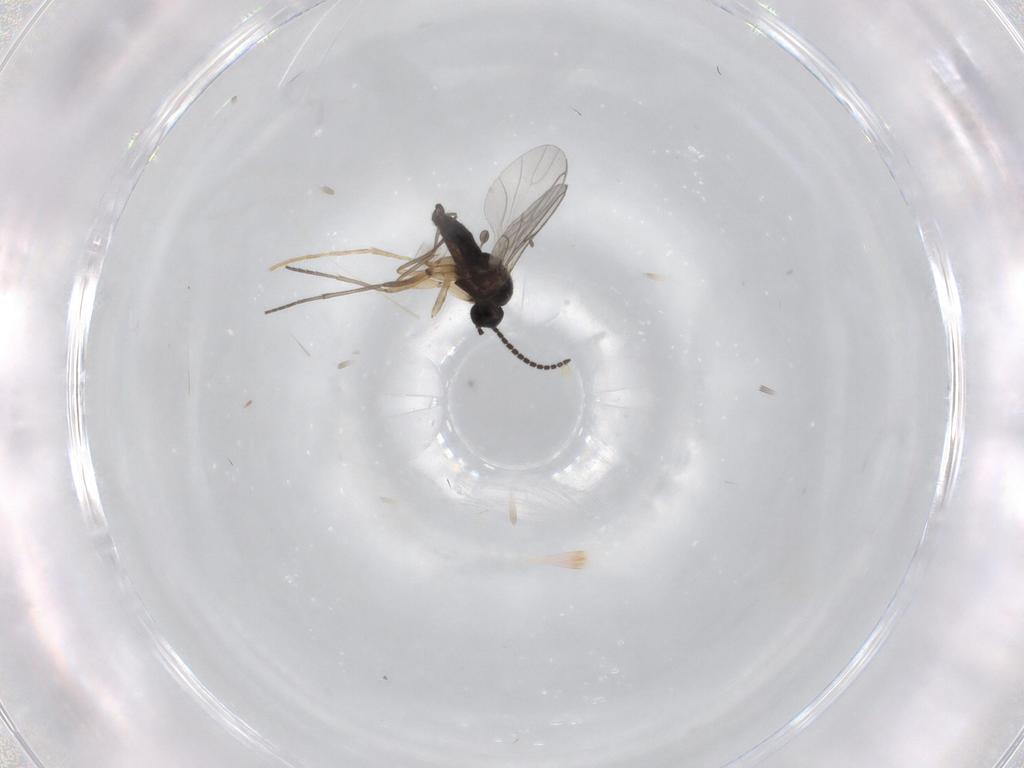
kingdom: Animalia
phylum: Arthropoda
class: Insecta
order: Diptera
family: Sciaridae
